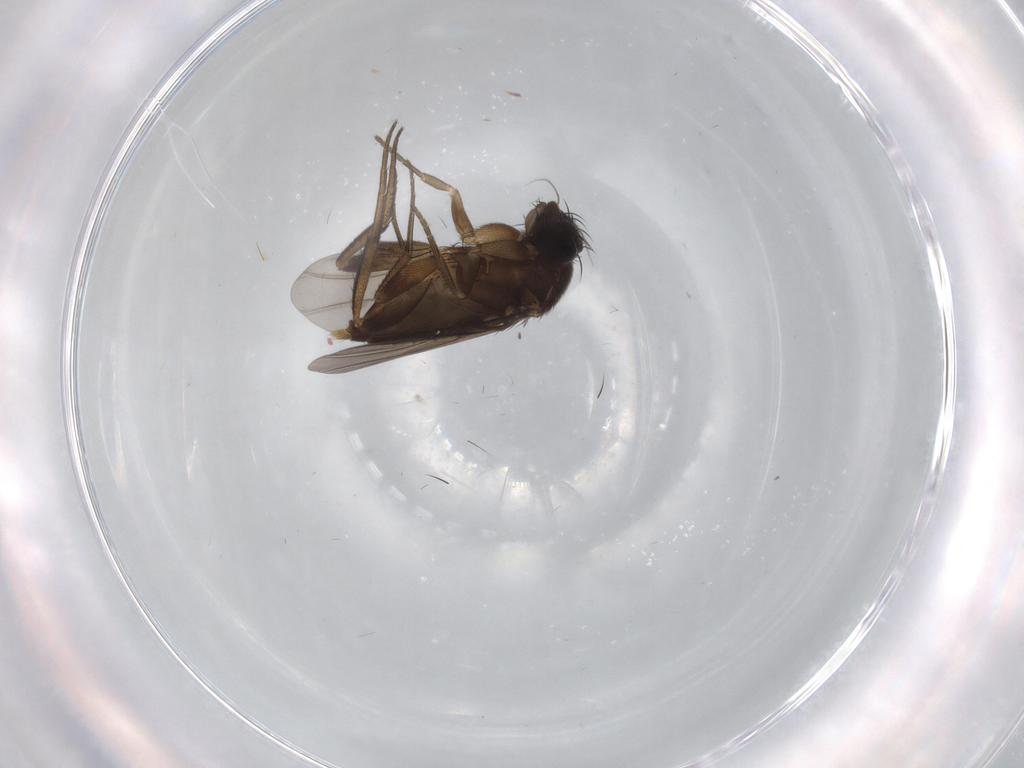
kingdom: Animalia
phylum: Arthropoda
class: Insecta
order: Diptera
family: Phoridae
